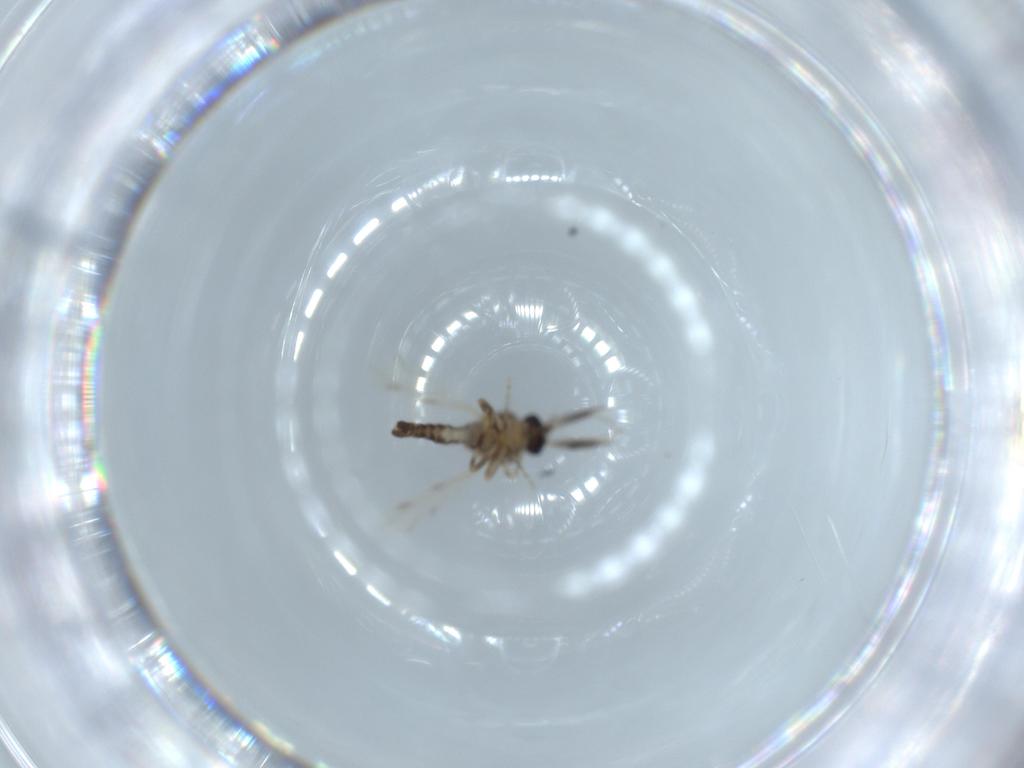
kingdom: Animalia
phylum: Arthropoda
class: Insecta
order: Diptera
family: Ceratopogonidae
